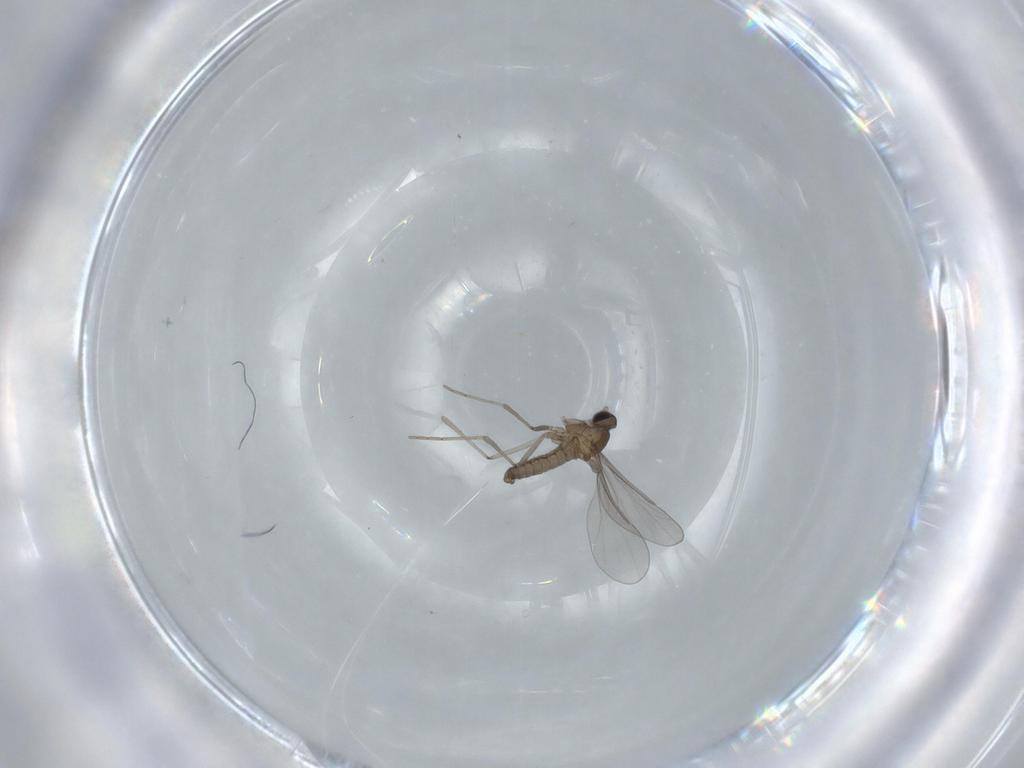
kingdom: Animalia
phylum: Arthropoda
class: Insecta
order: Diptera
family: Cecidomyiidae
